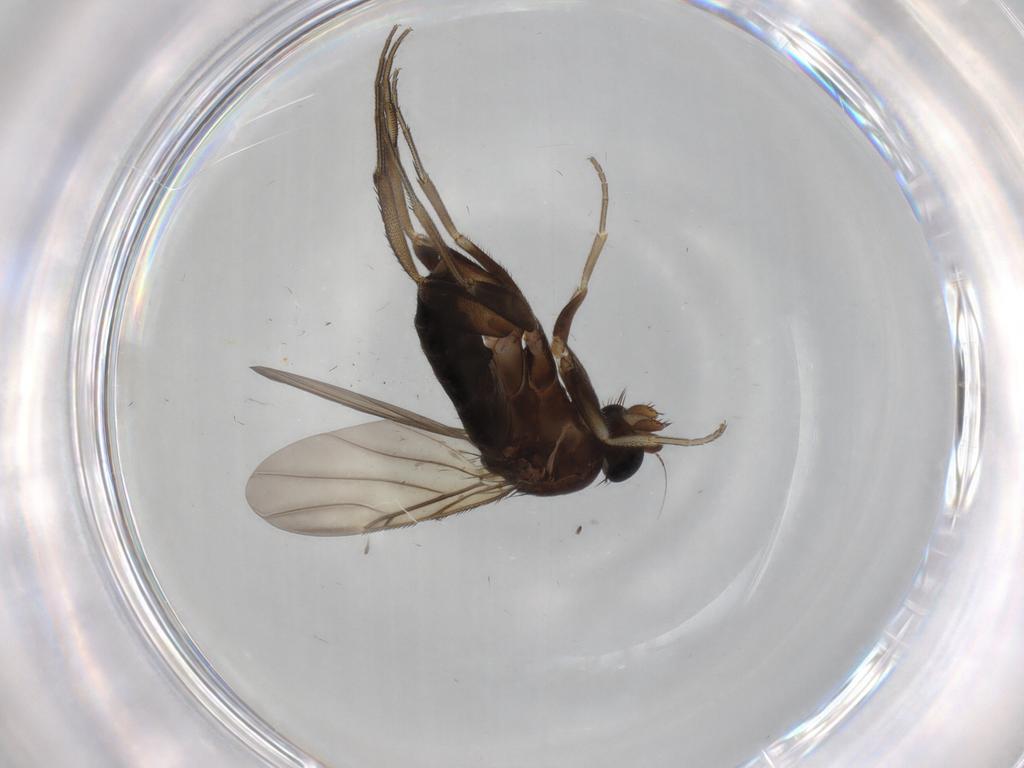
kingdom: Animalia
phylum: Arthropoda
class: Insecta
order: Diptera
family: Phoridae
